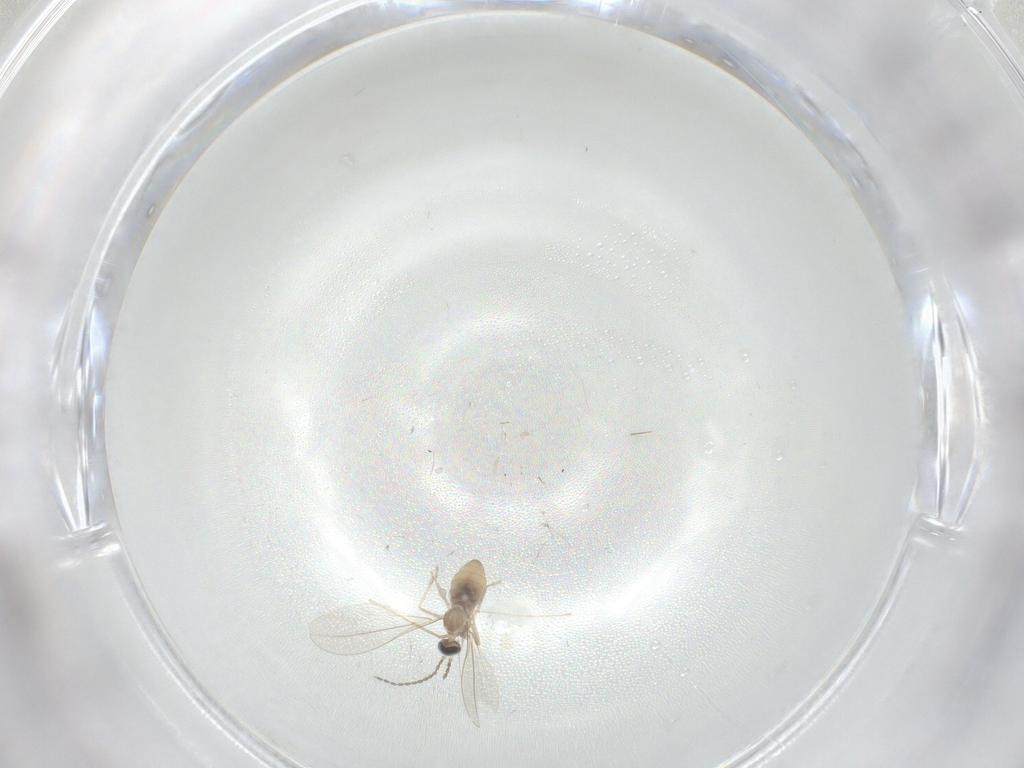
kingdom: Animalia
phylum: Arthropoda
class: Insecta
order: Diptera
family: Cecidomyiidae
